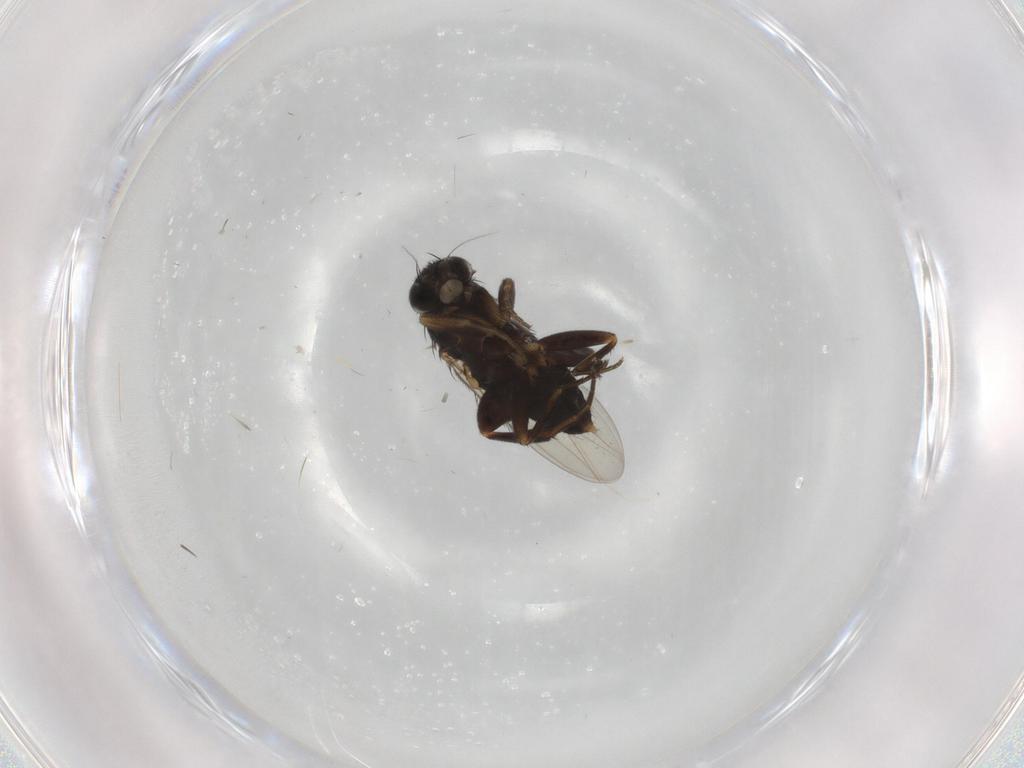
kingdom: Animalia
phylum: Arthropoda
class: Insecta
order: Diptera
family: Phoridae
